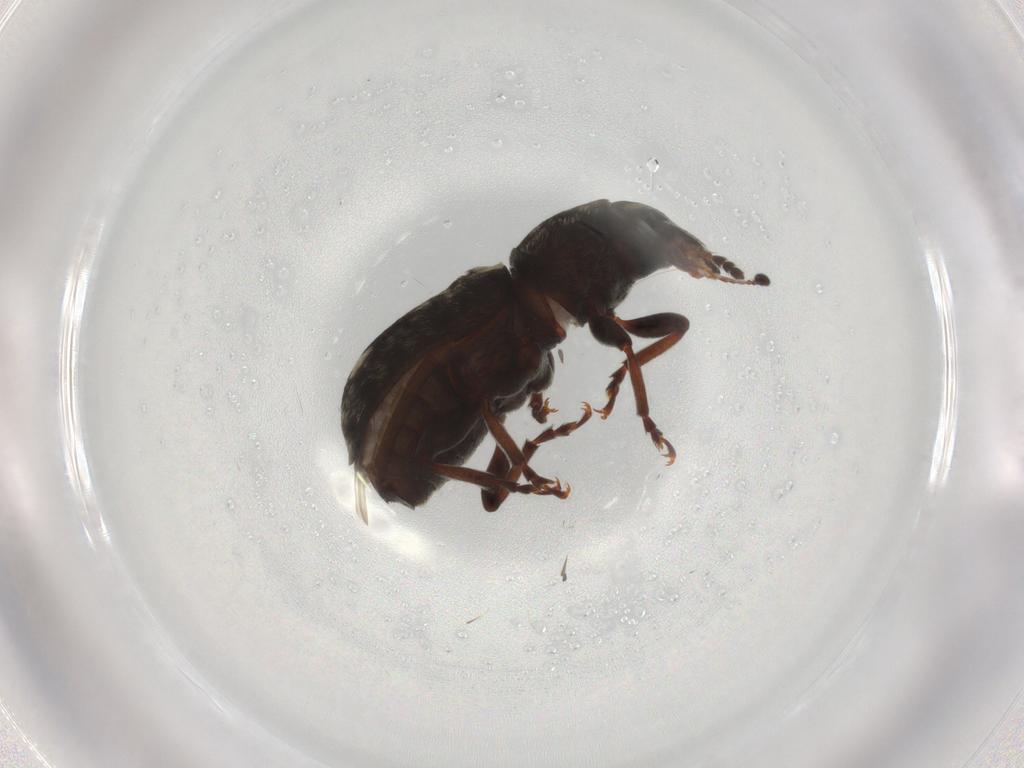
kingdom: Animalia
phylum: Arthropoda
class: Insecta
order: Coleoptera
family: Anthribidae
